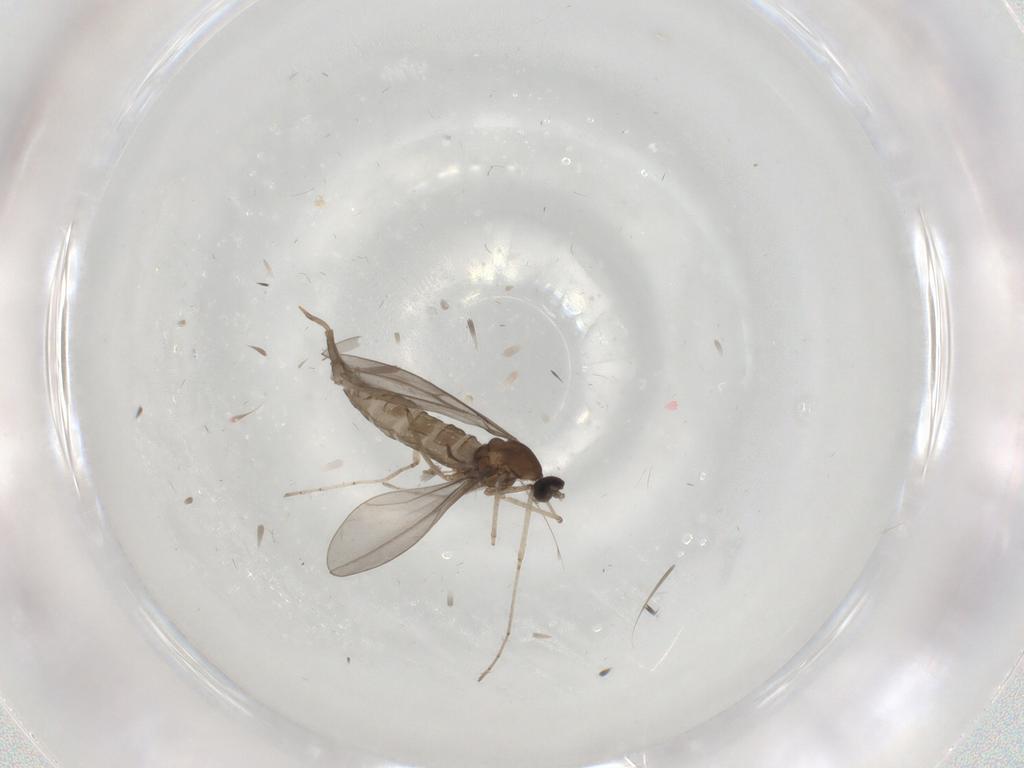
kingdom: Animalia
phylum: Arthropoda
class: Insecta
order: Diptera
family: Cecidomyiidae
